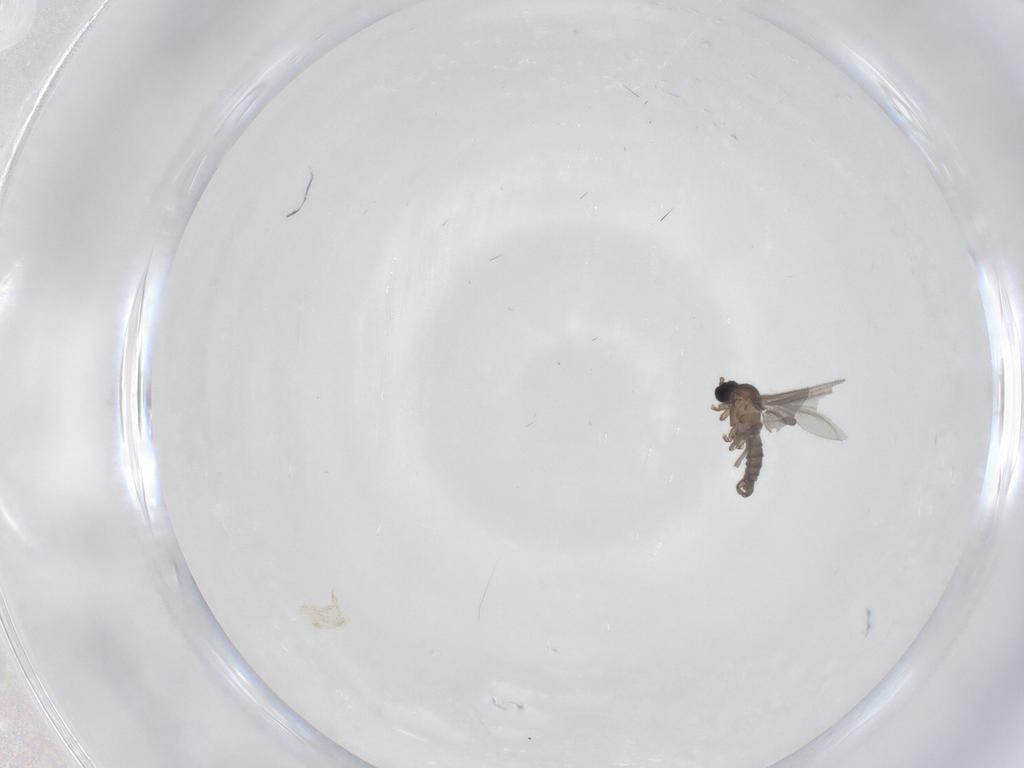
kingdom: Animalia
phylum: Arthropoda
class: Insecta
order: Diptera
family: Sciaridae
